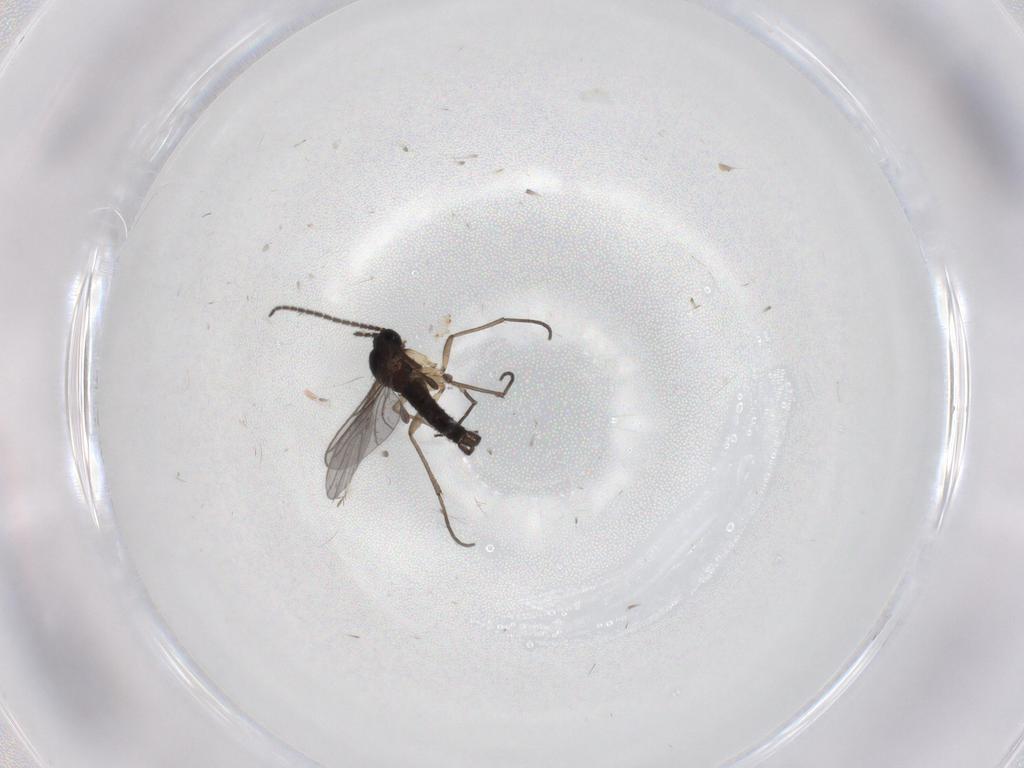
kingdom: Animalia
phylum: Arthropoda
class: Insecta
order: Diptera
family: Sciaridae
